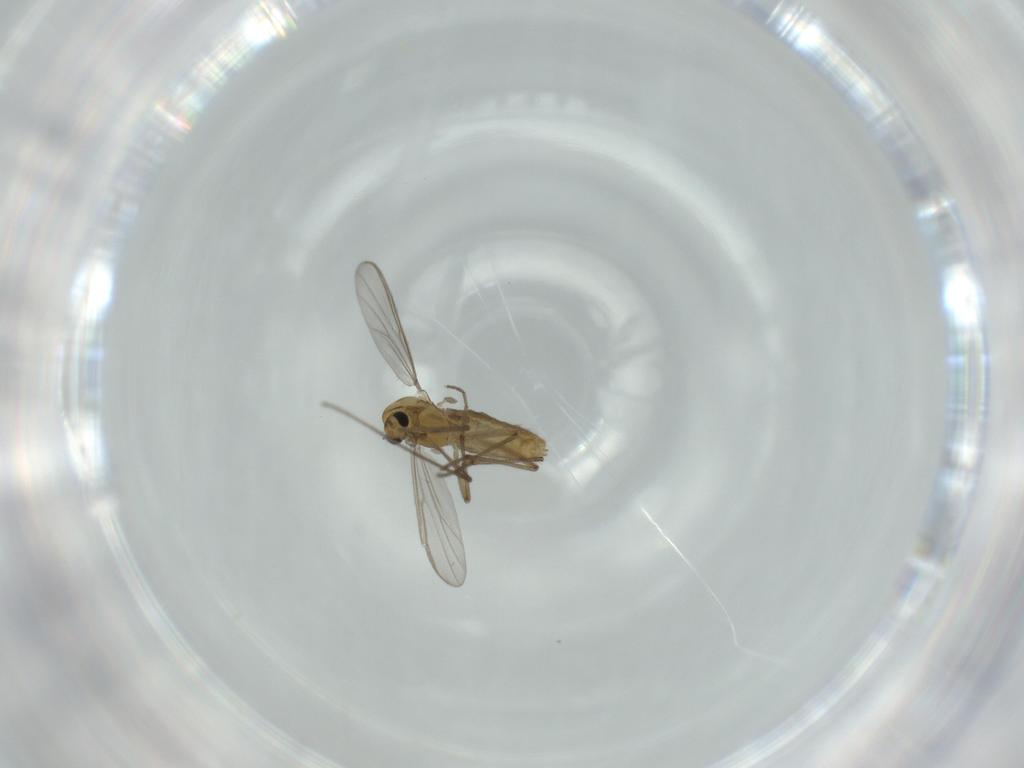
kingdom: Animalia
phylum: Arthropoda
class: Insecta
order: Diptera
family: Chironomidae
